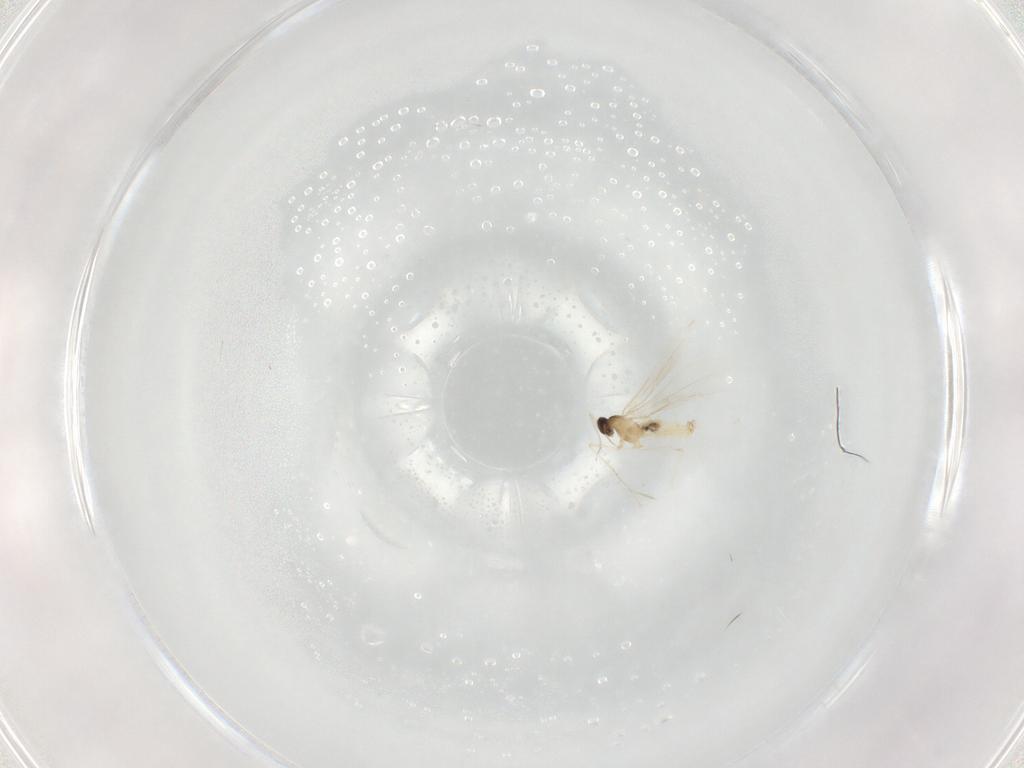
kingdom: Animalia
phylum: Arthropoda
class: Insecta
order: Diptera
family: Cecidomyiidae
